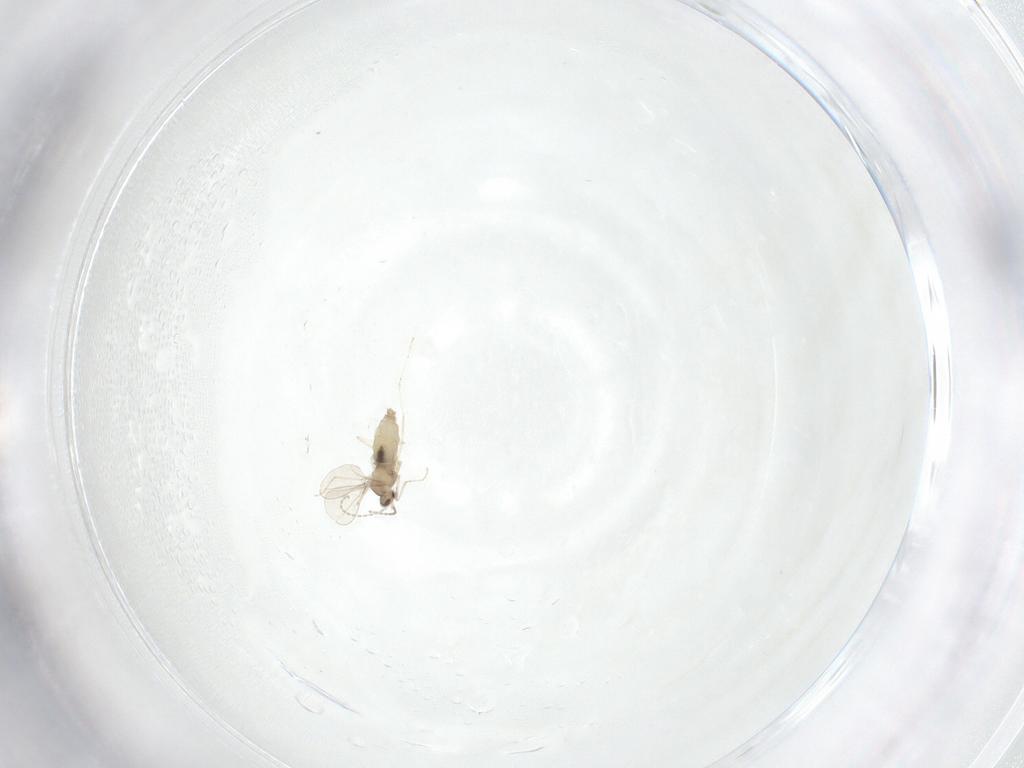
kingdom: Animalia
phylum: Arthropoda
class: Insecta
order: Diptera
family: Cecidomyiidae
